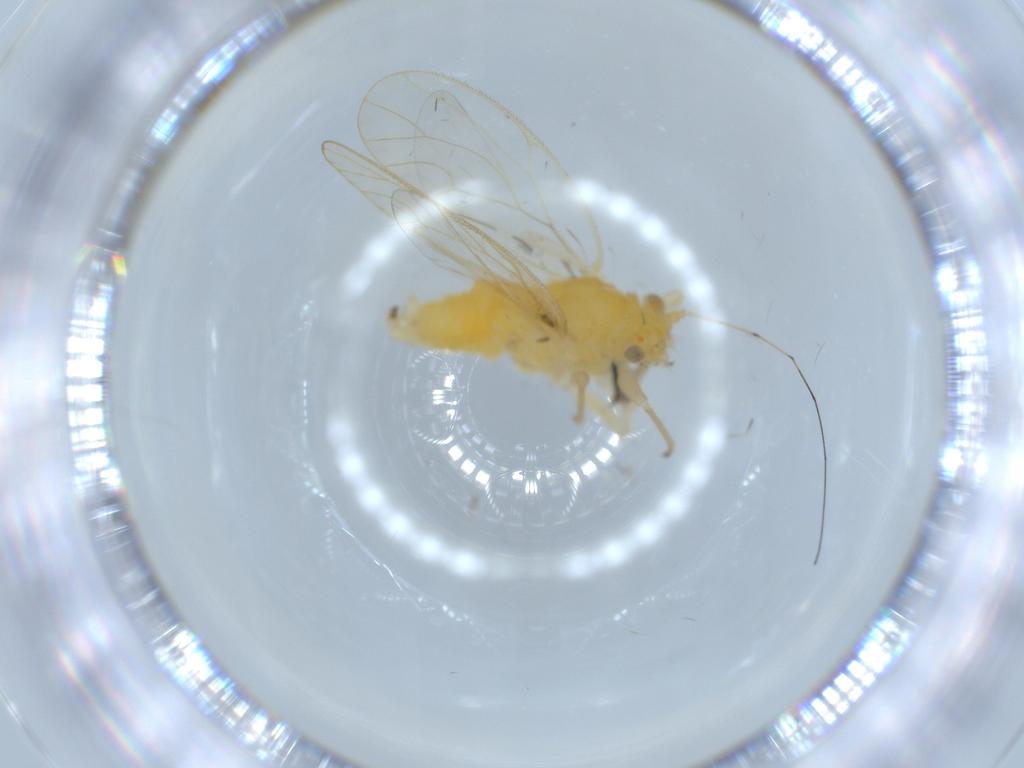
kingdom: Animalia
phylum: Arthropoda
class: Insecta
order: Hemiptera
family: Psyllidae
